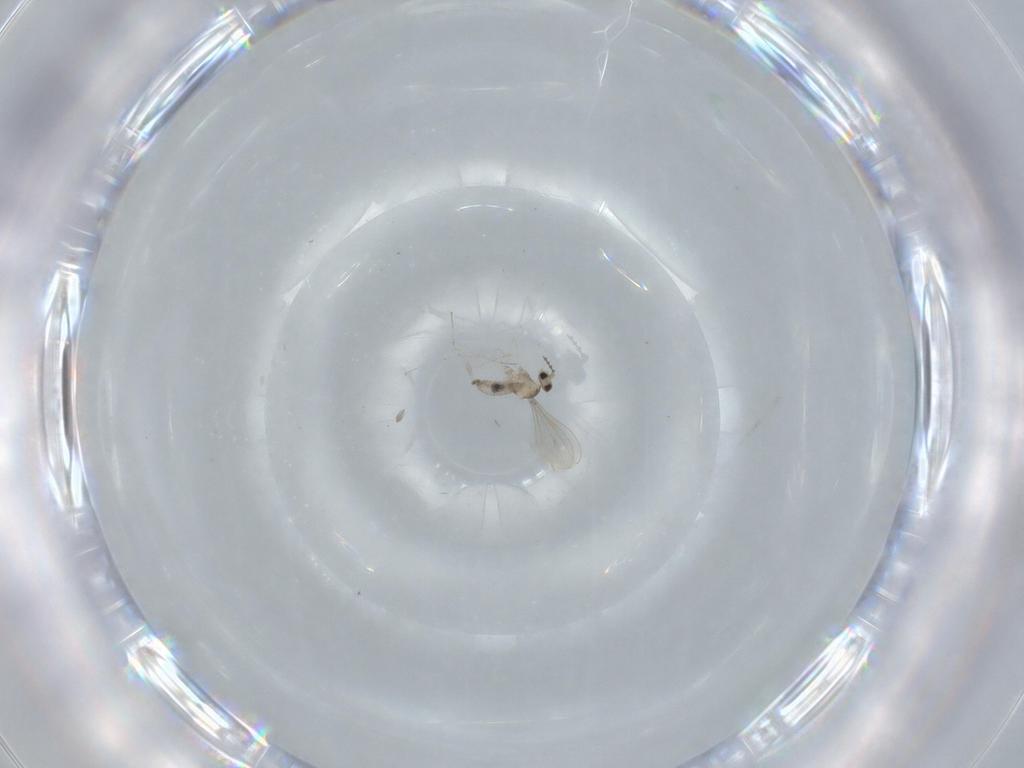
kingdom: Animalia
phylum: Arthropoda
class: Insecta
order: Diptera
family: Cecidomyiidae
